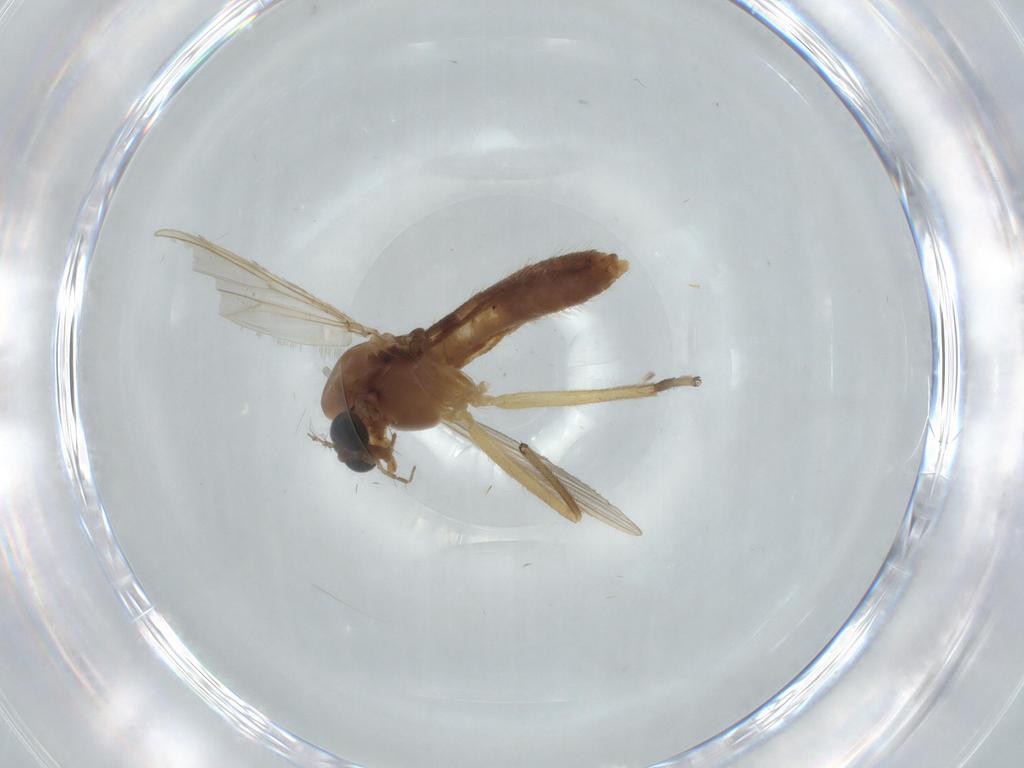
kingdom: Animalia
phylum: Arthropoda
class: Insecta
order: Diptera
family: Chironomidae
